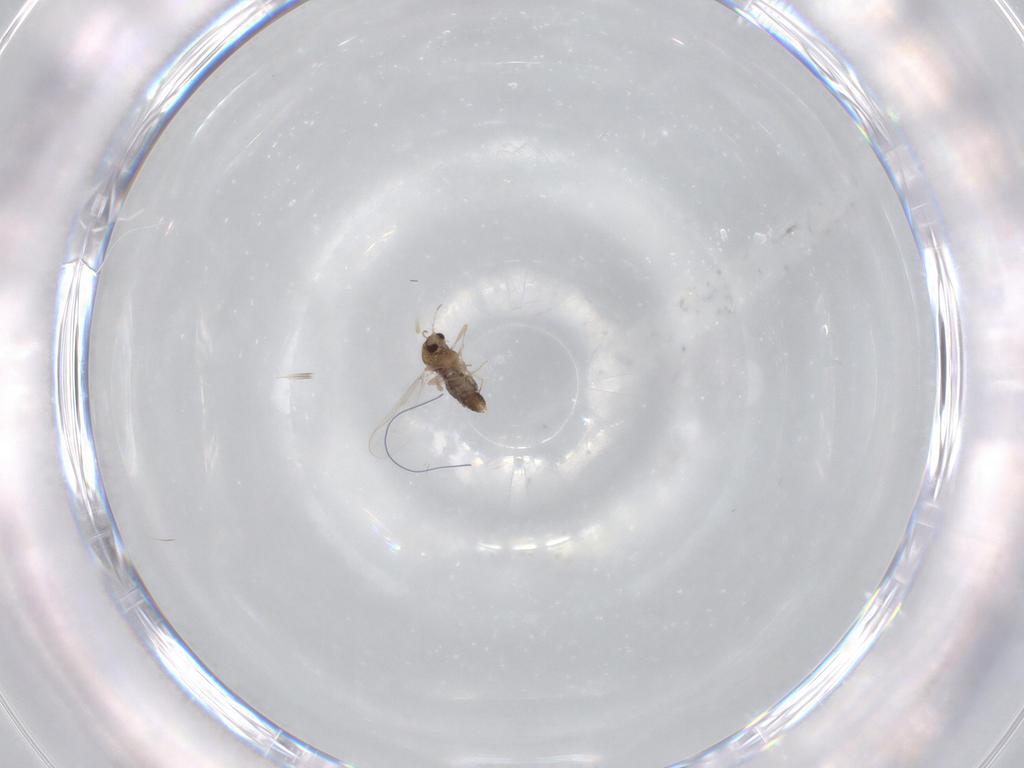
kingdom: Animalia
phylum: Arthropoda
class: Insecta
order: Diptera
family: Chironomidae
